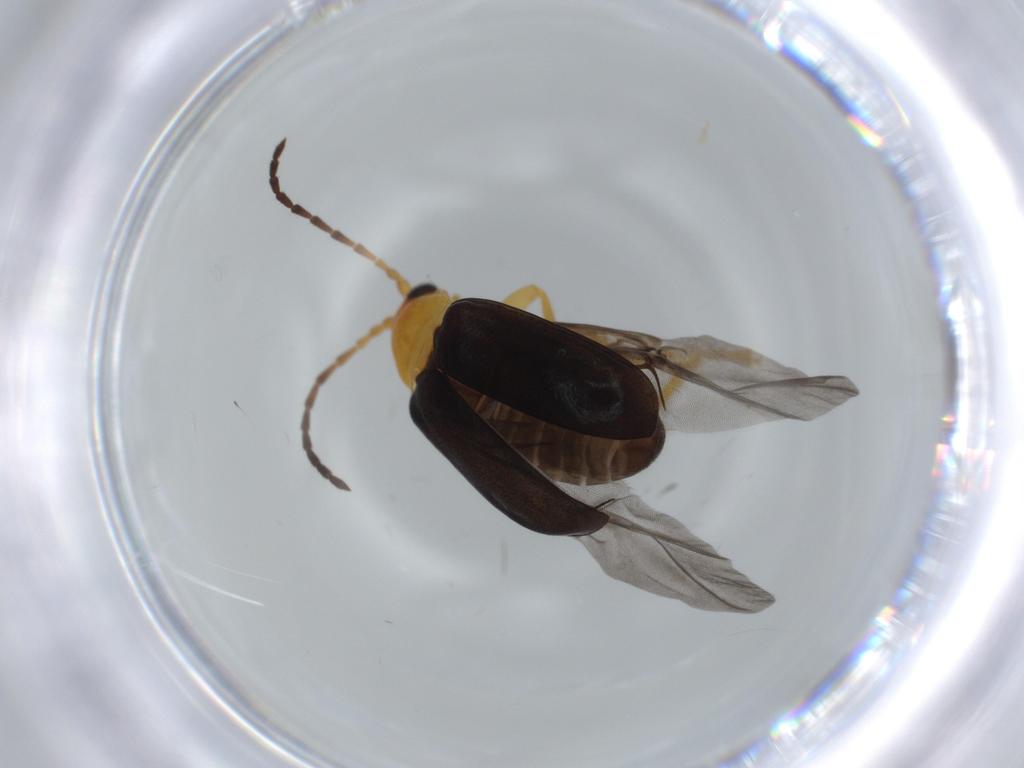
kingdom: Animalia
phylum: Arthropoda
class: Insecta
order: Coleoptera
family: Chrysomelidae
